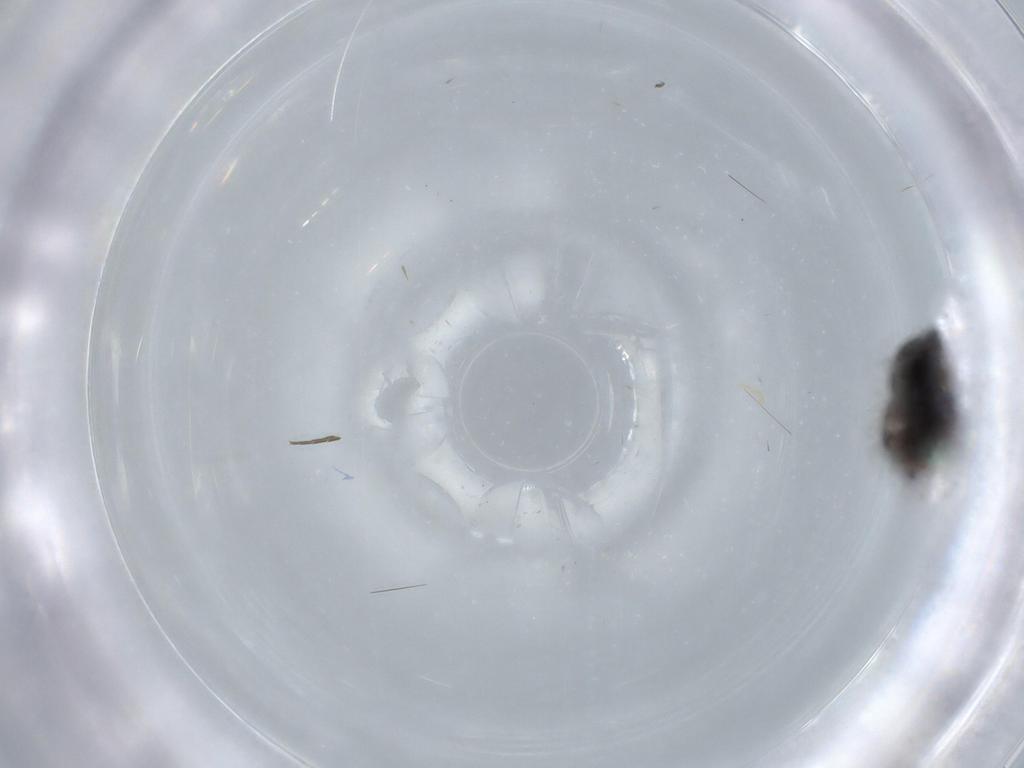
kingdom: Animalia
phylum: Arthropoda
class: Insecta
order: Diptera
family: Phoridae
